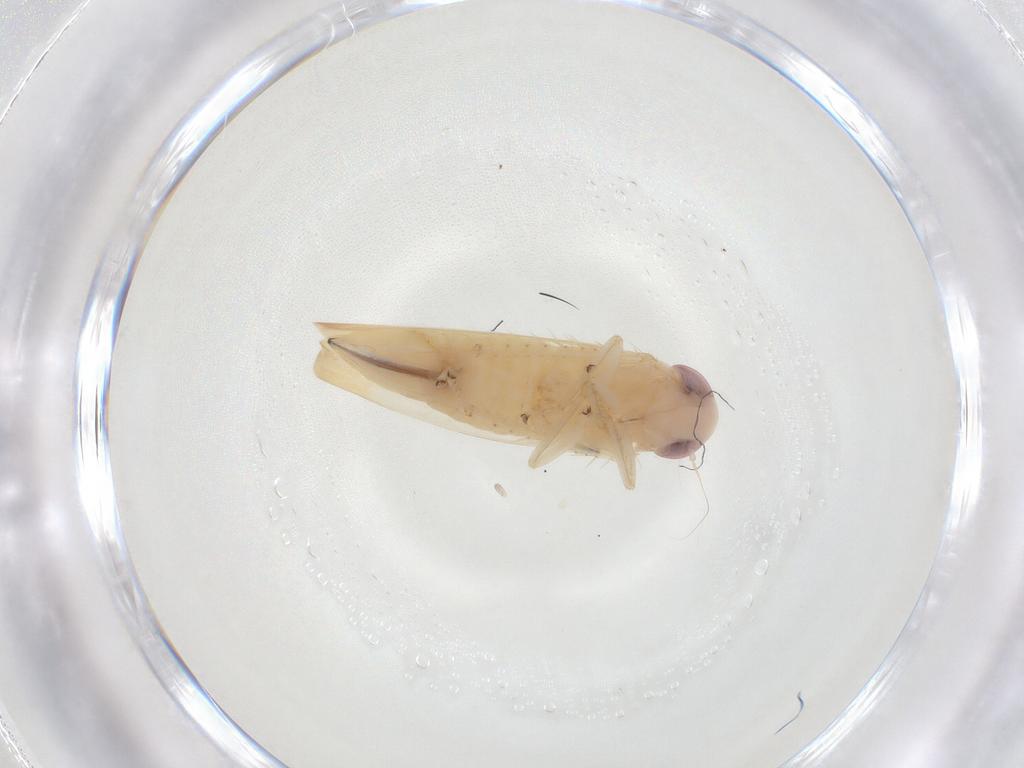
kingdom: Animalia
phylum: Arthropoda
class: Insecta
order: Hemiptera
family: Cicadellidae
